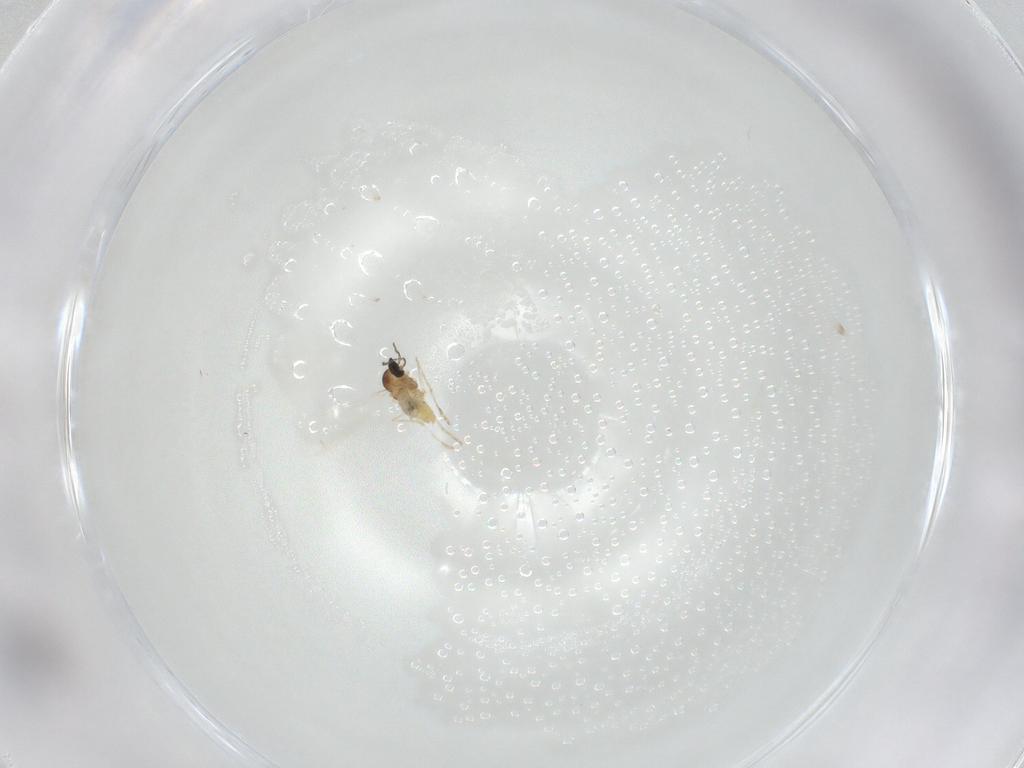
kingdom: Animalia
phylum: Arthropoda
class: Insecta
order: Diptera
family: Cecidomyiidae
